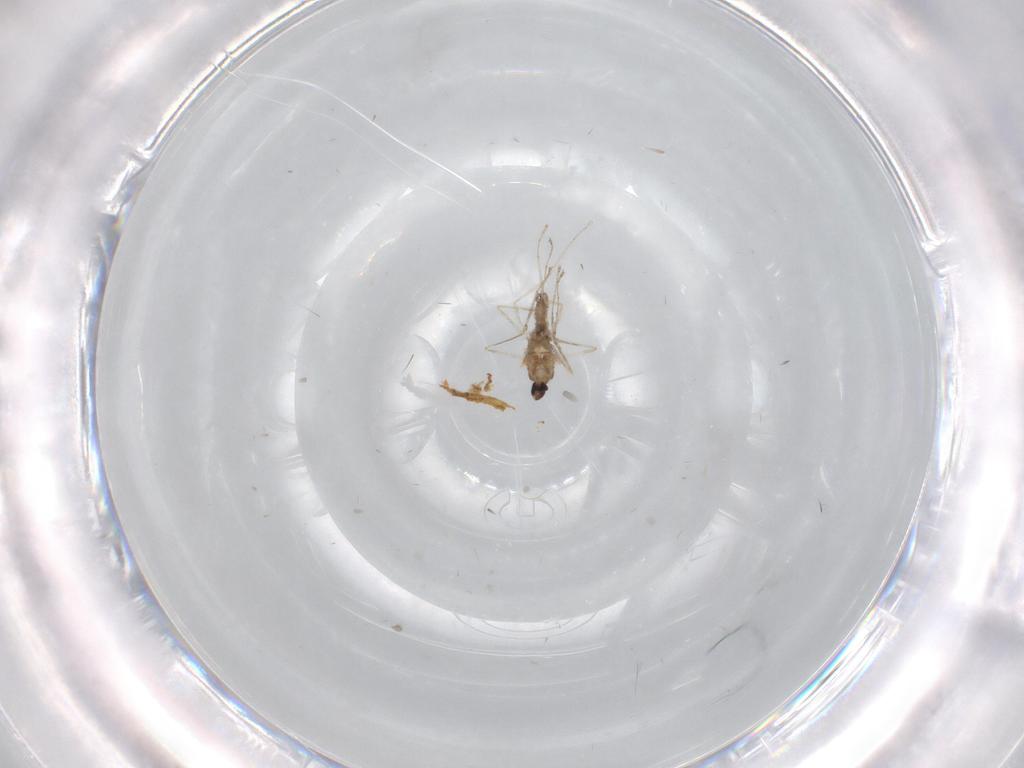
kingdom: Animalia
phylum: Arthropoda
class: Insecta
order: Diptera
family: Cecidomyiidae
